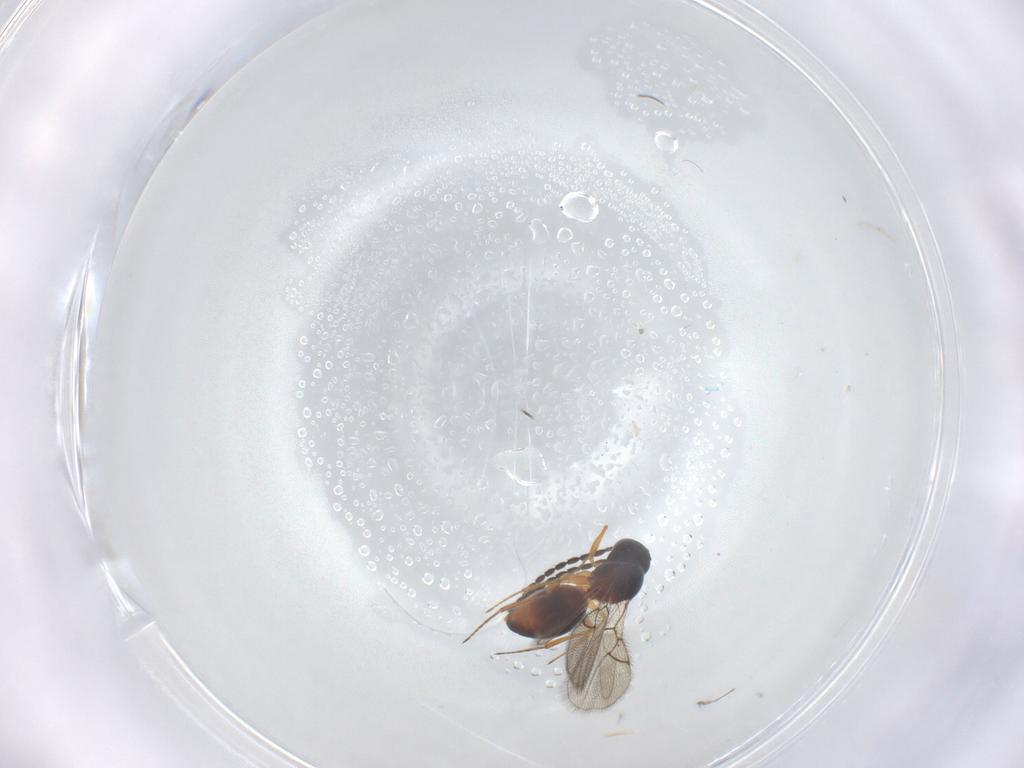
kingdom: Animalia
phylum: Arthropoda
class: Insecta
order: Hymenoptera
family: Figitidae
